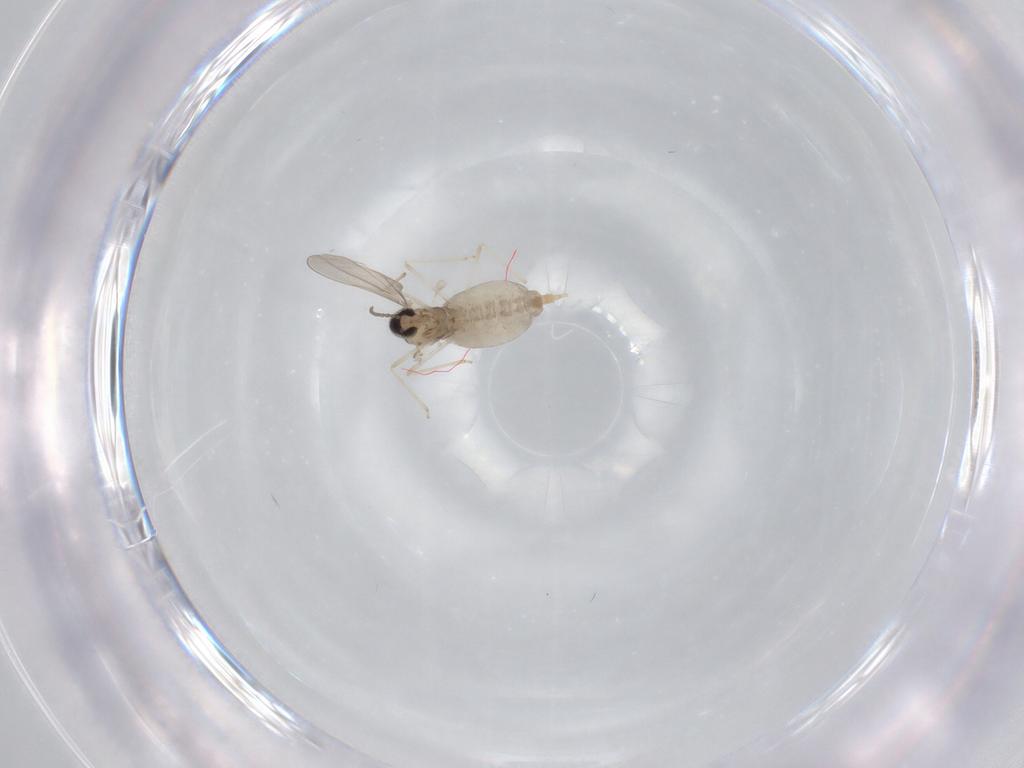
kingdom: Animalia
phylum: Arthropoda
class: Insecta
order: Diptera
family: Cecidomyiidae
